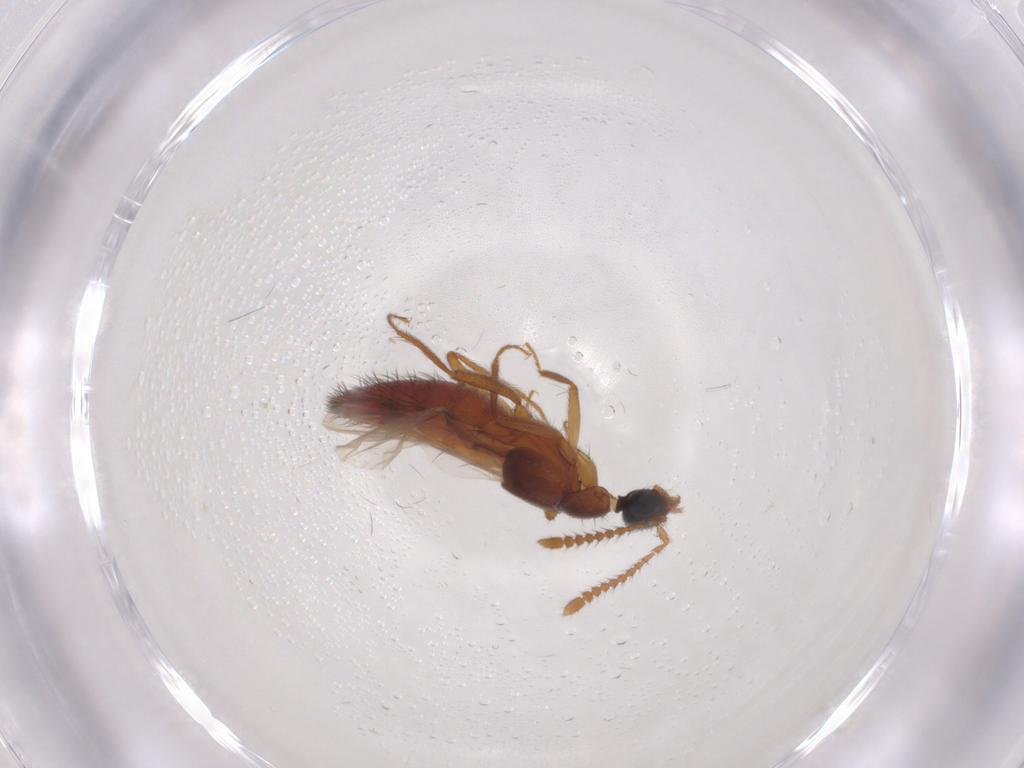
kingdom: Animalia
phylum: Arthropoda
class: Insecta
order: Coleoptera
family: Staphylinidae
